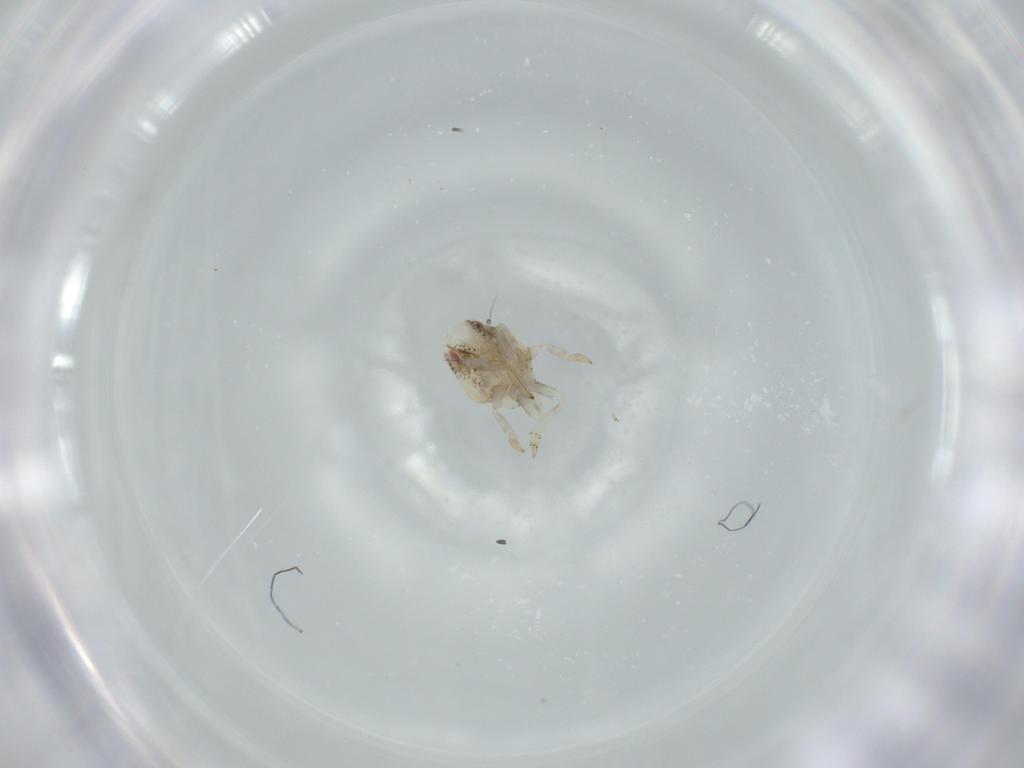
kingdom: Animalia
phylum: Arthropoda
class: Insecta
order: Hemiptera
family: Acanaloniidae
